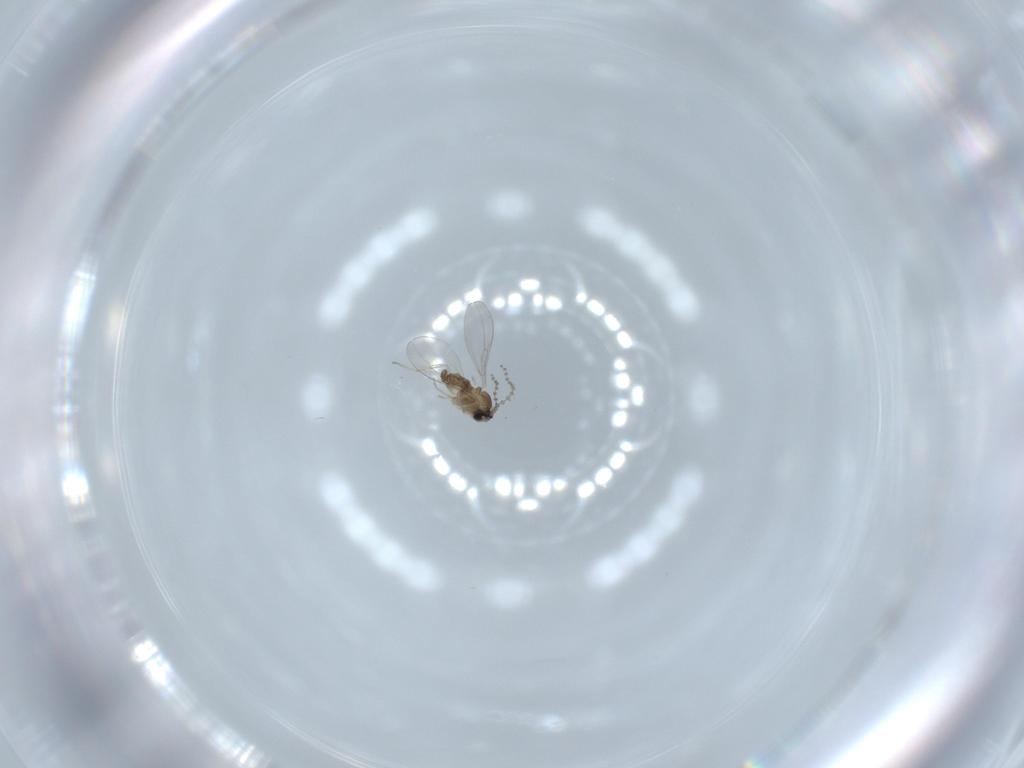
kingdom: Animalia
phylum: Arthropoda
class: Insecta
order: Diptera
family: Cecidomyiidae
